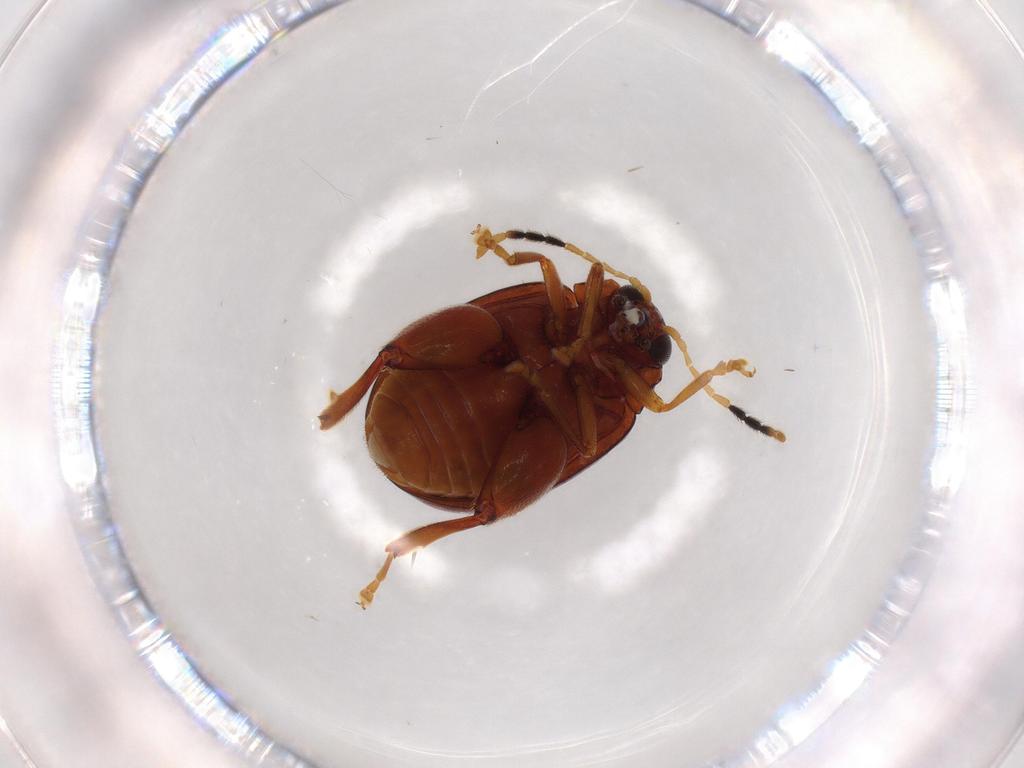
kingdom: Animalia
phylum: Arthropoda
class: Insecta
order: Coleoptera
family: Chrysomelidae
